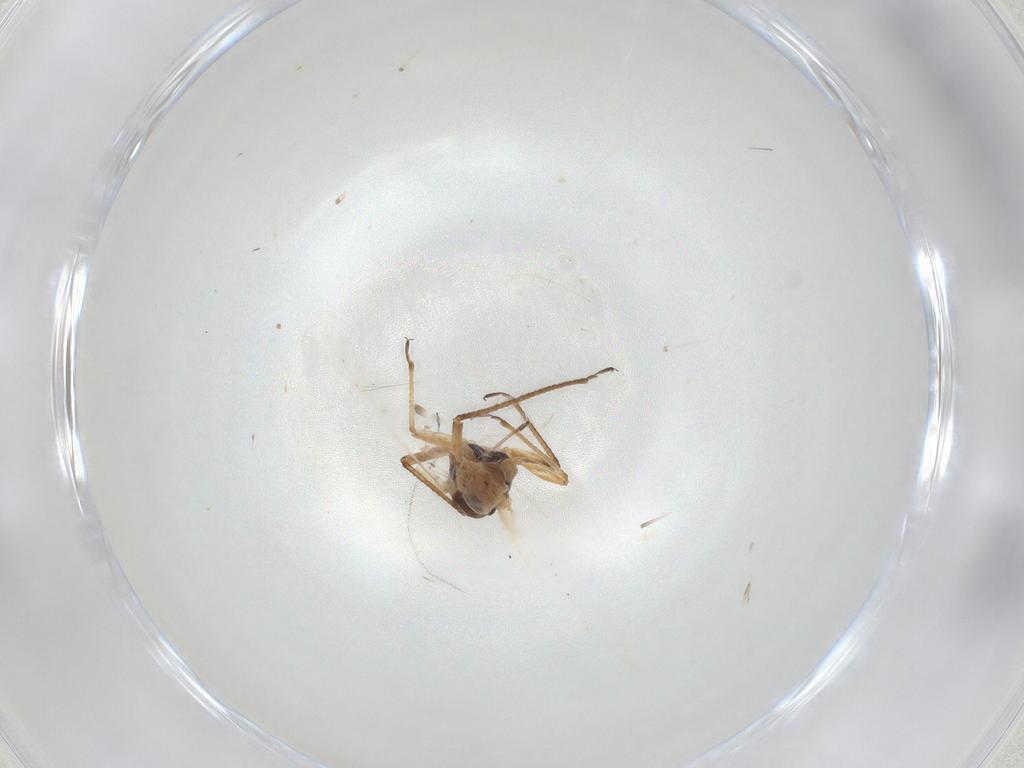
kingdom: Animalia
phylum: Arthropoda
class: Insecta
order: Hemiptera
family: Aphididae
